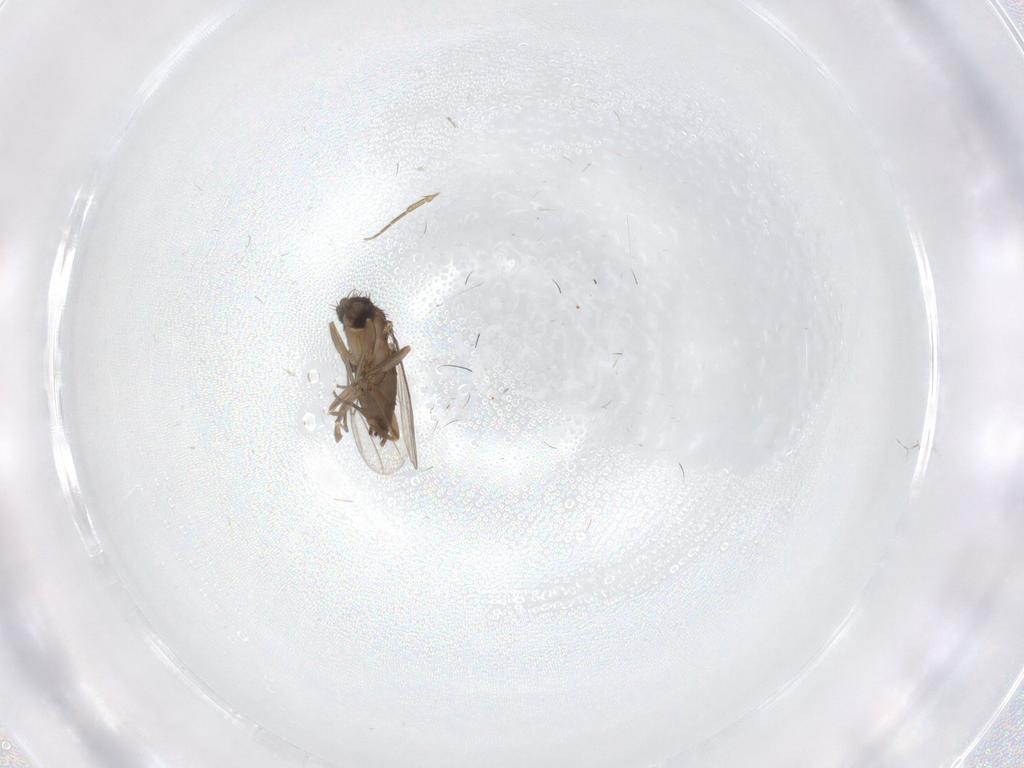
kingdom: Animalia
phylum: Arthropoda
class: Insecta
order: Diptera
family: Phoridae
